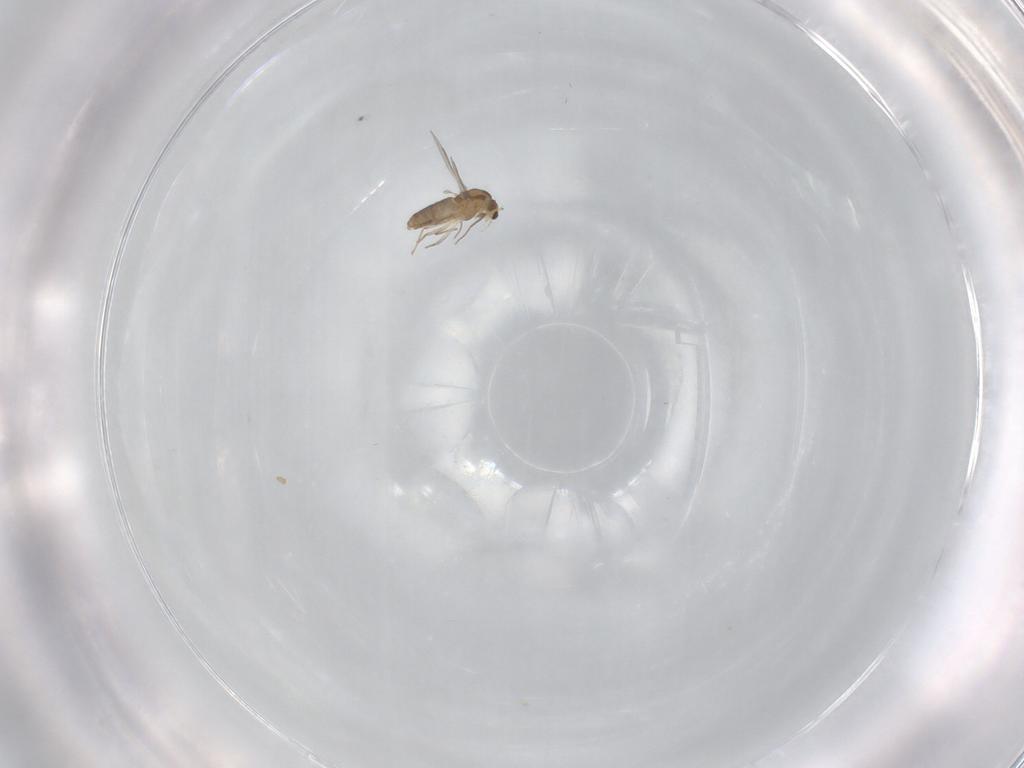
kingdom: Animalia
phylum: Arthropoda
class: Insecta
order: Diptera
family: Chironomidae
